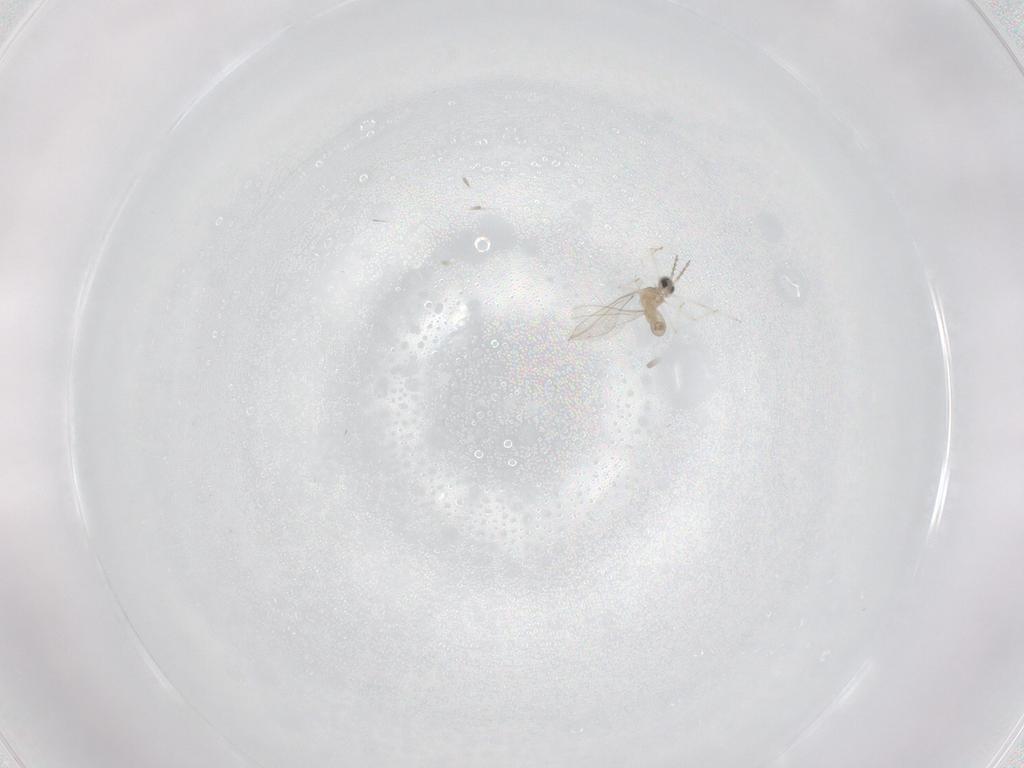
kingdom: Animalia
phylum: Arthropoda
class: Insecta
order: Diptera
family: Cecidomyiidae
